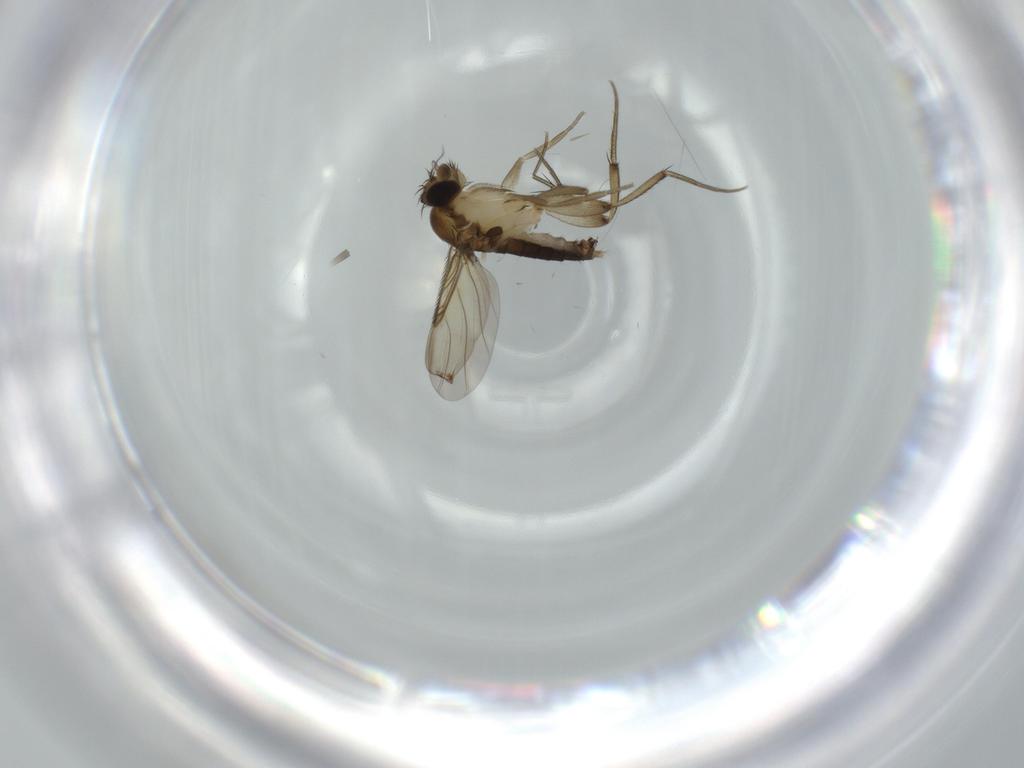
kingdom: Animalia
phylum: Arthropoda
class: Insecta
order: Diptera
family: Phoridae
